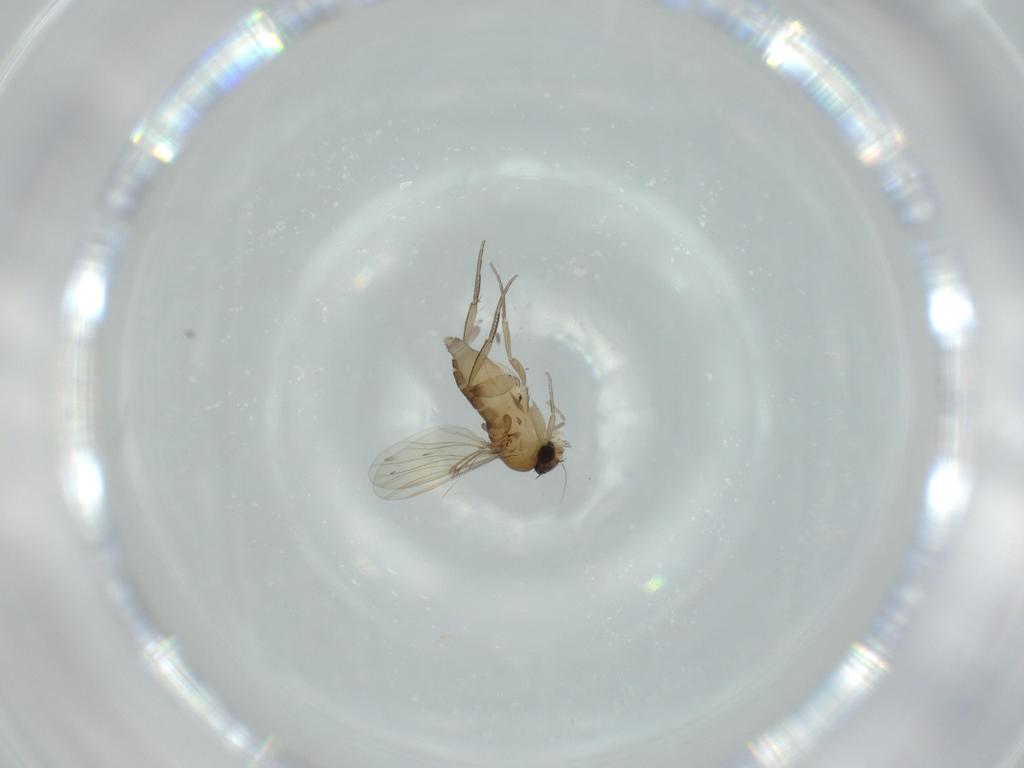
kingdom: Animalia
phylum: Arthropoda
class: Insecta
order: Diptera
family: Phoridae
